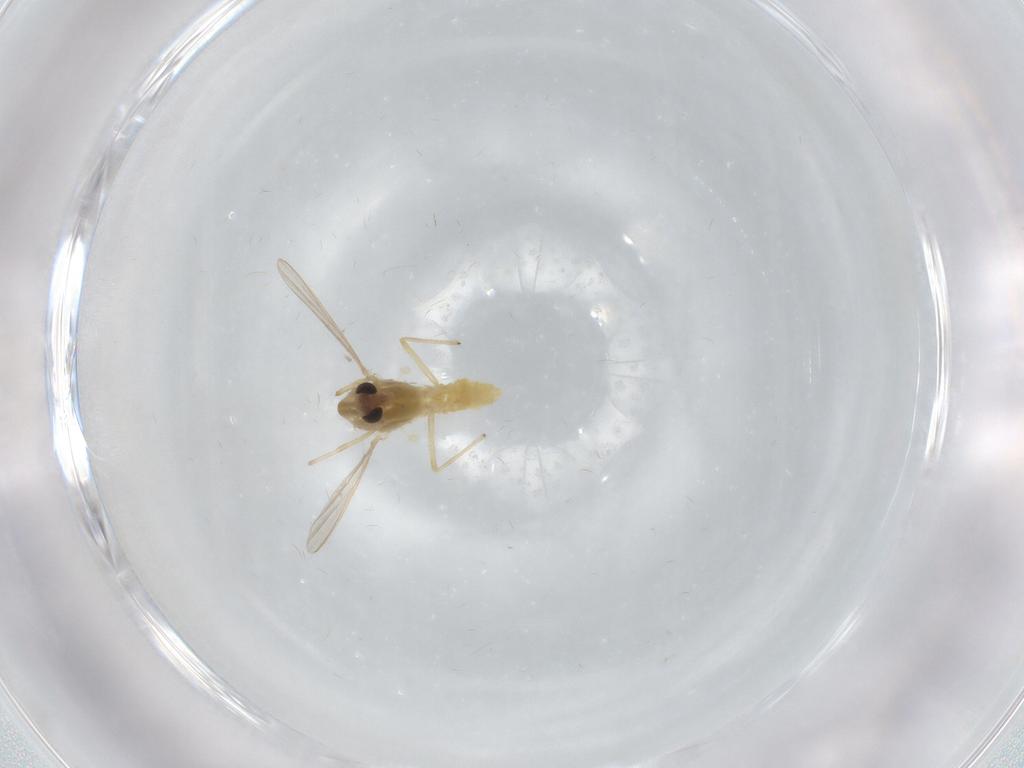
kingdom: Animalia
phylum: Arthropoda
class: Insecta
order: Diptera
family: Chironomidae
